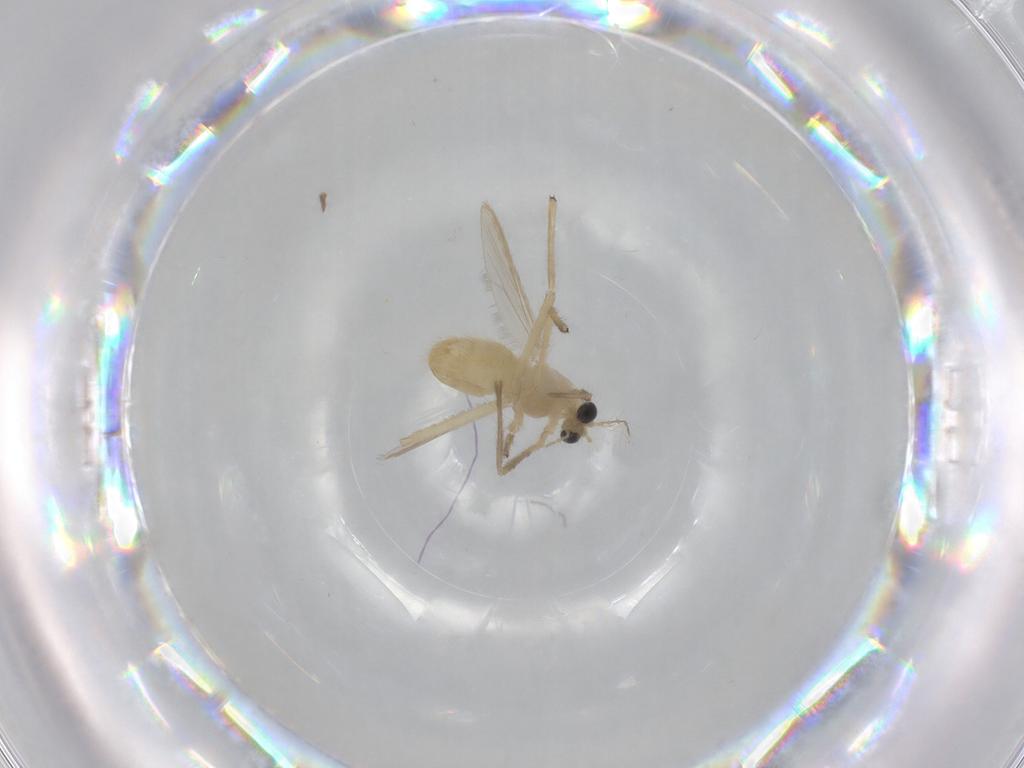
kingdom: Animalia
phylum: Arthropoda
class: Insecta
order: Diptera
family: Chironomidae
